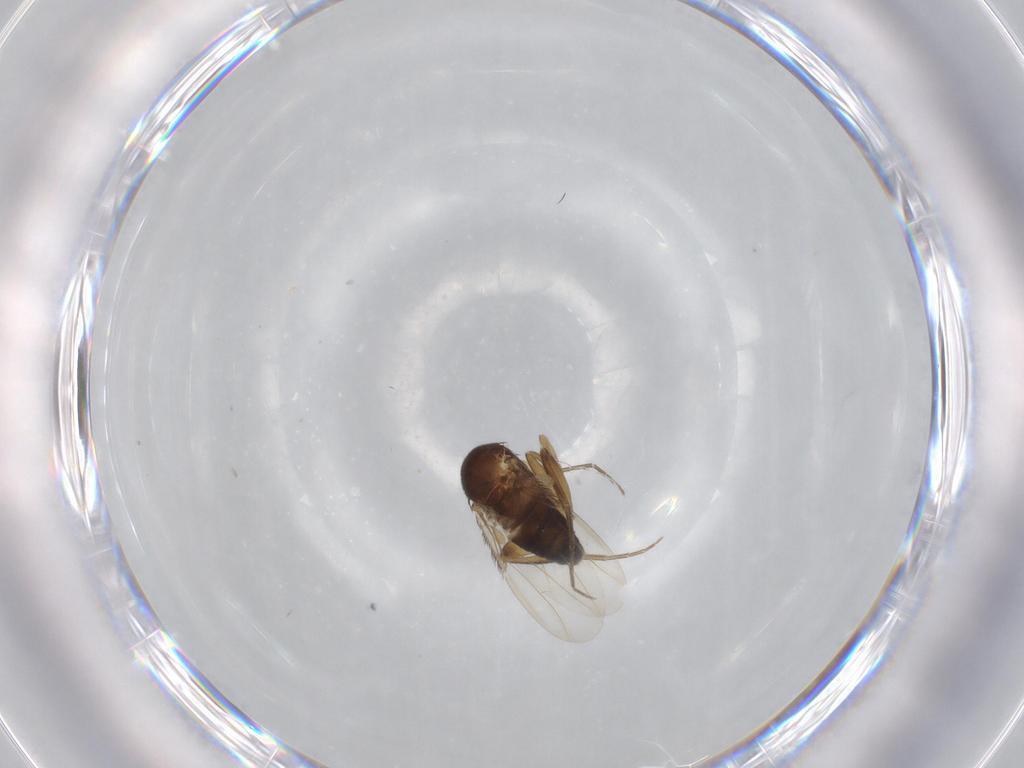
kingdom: Animalia
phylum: Arthropoda
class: Insecta
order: Diptera
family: Phoridae
